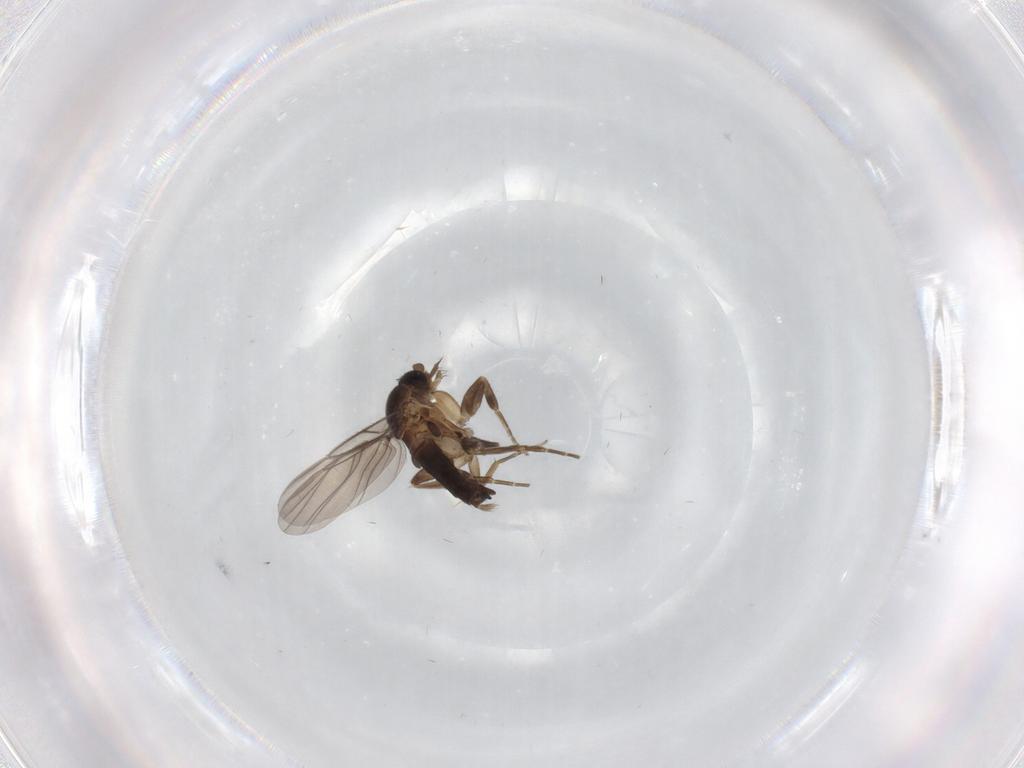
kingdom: Animalia
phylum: Arthropoda
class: Insecta
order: Diptera
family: Phoridae
